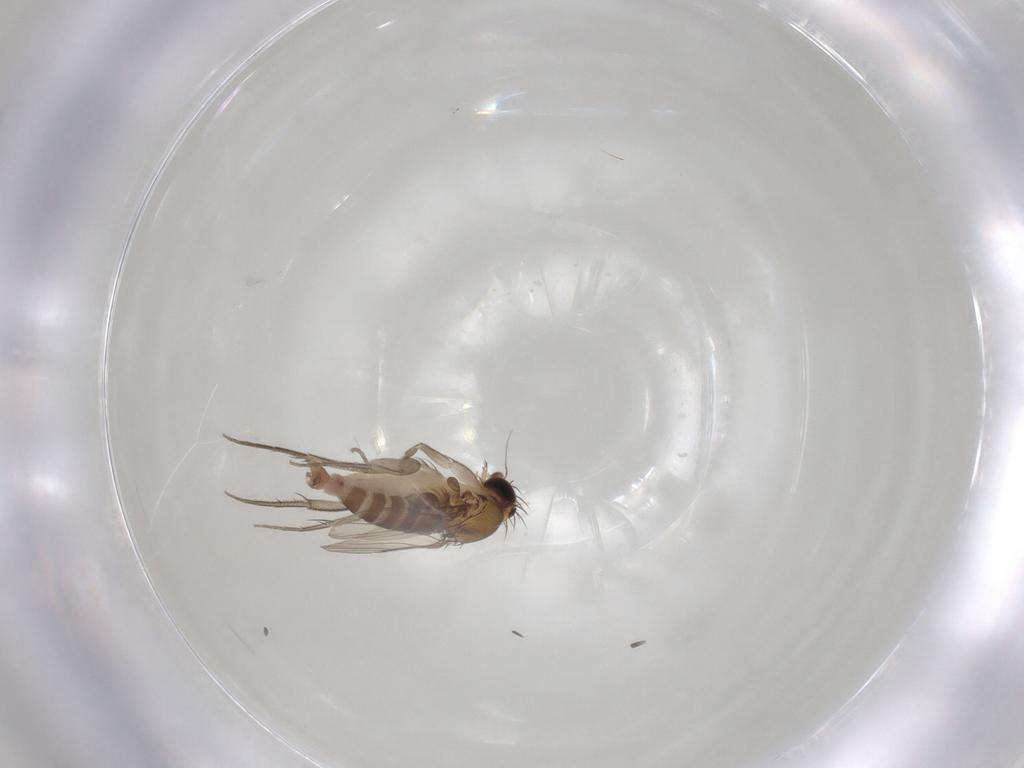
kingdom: Animalia
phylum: Arthropoda
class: Insecta
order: Diptera
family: Phoridae
